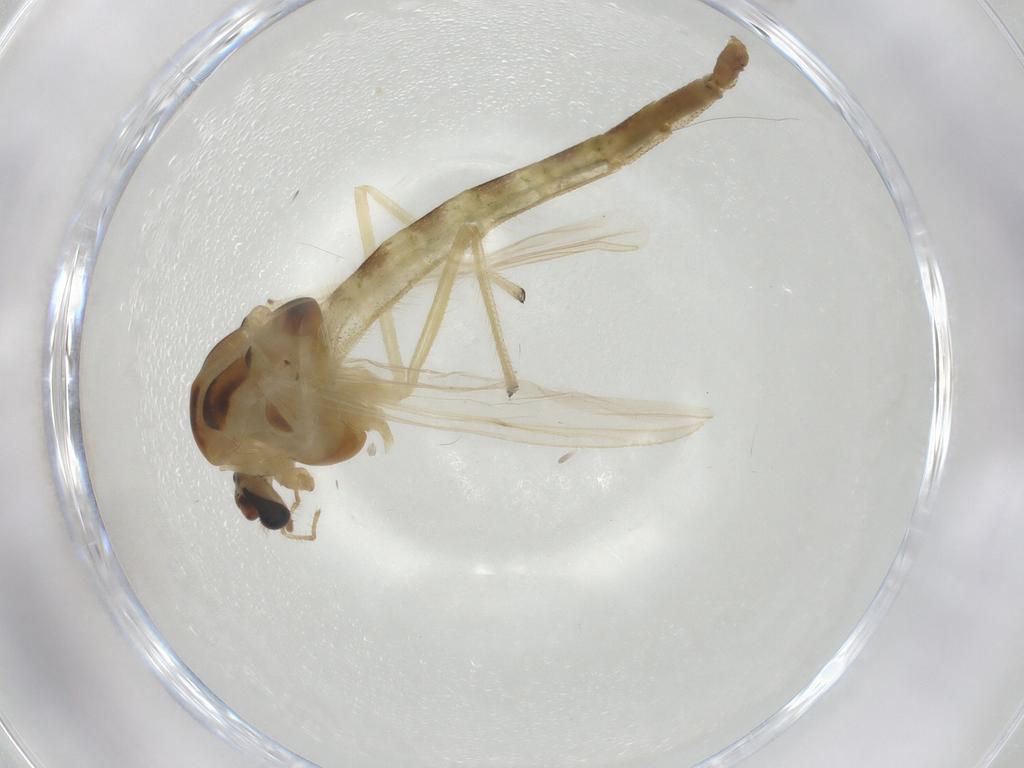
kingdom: Animalia
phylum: Arthropoda
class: Insecta
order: Diptera
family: Chironomidae
